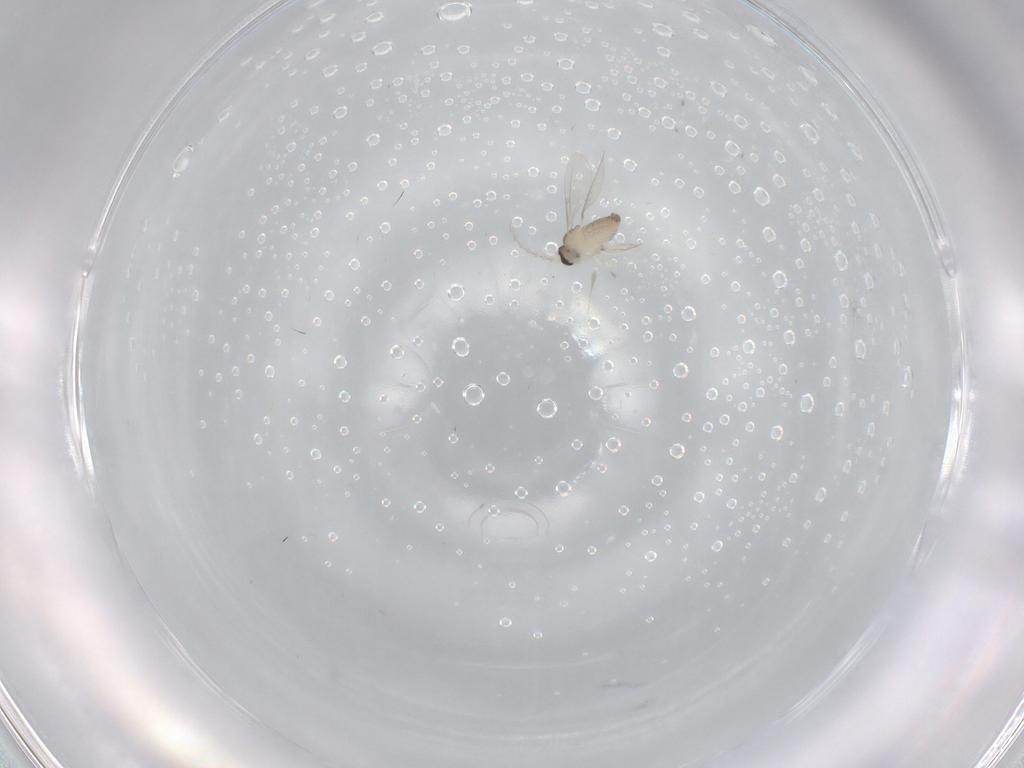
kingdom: Animalia
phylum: Arthropoda
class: Insecta
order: Diptera
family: Cecidomyiidae
